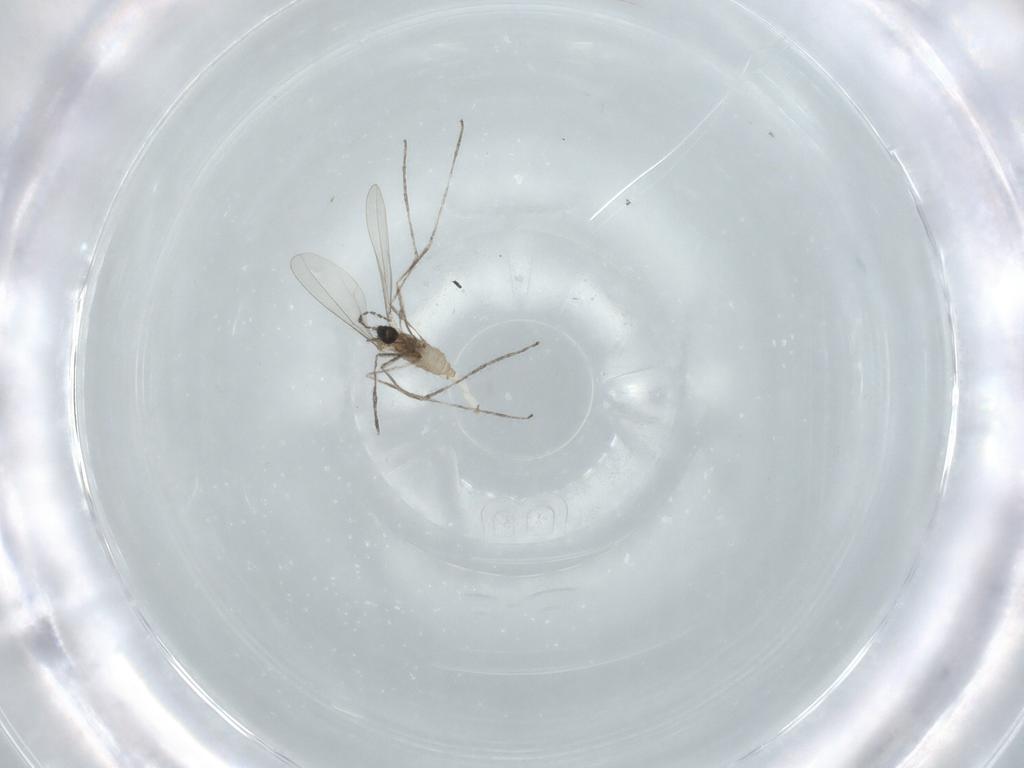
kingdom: Animalia
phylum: Arthropoda
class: Insecta
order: Diptera
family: Cecidomyiidae
